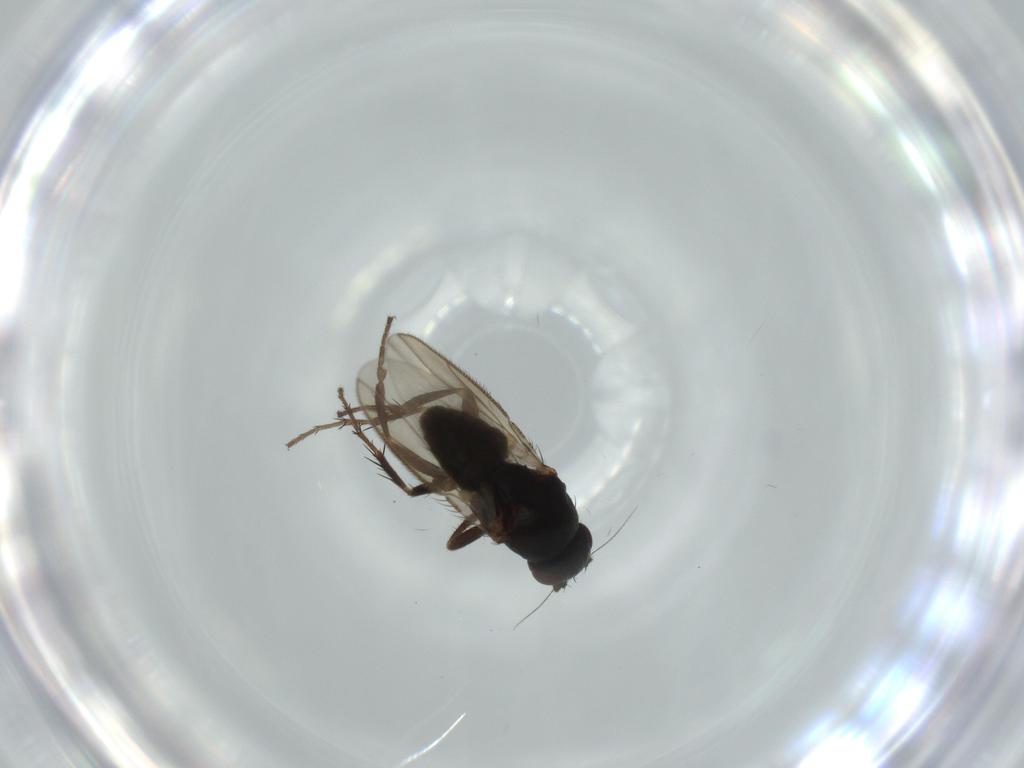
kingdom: Animalia
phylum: Arthropoda
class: Insecta
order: Diptera
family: Sphaeroceridae
